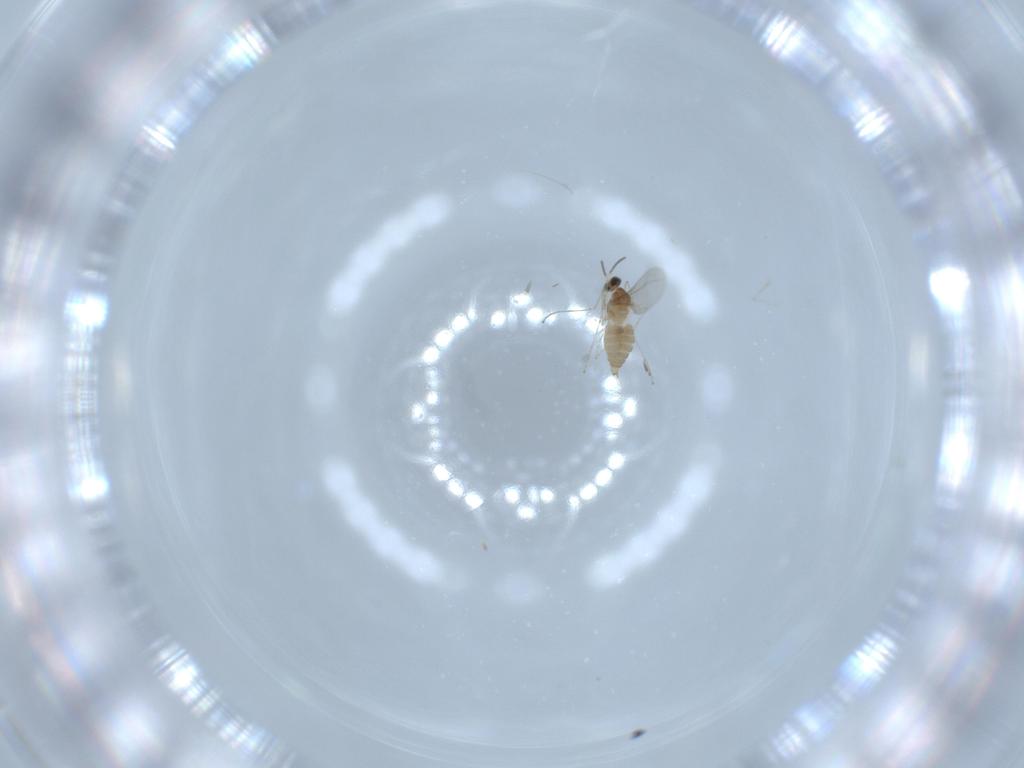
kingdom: Animalia
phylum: Arthropoda
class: Insecta
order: Diptera
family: Cecidomyiidae
